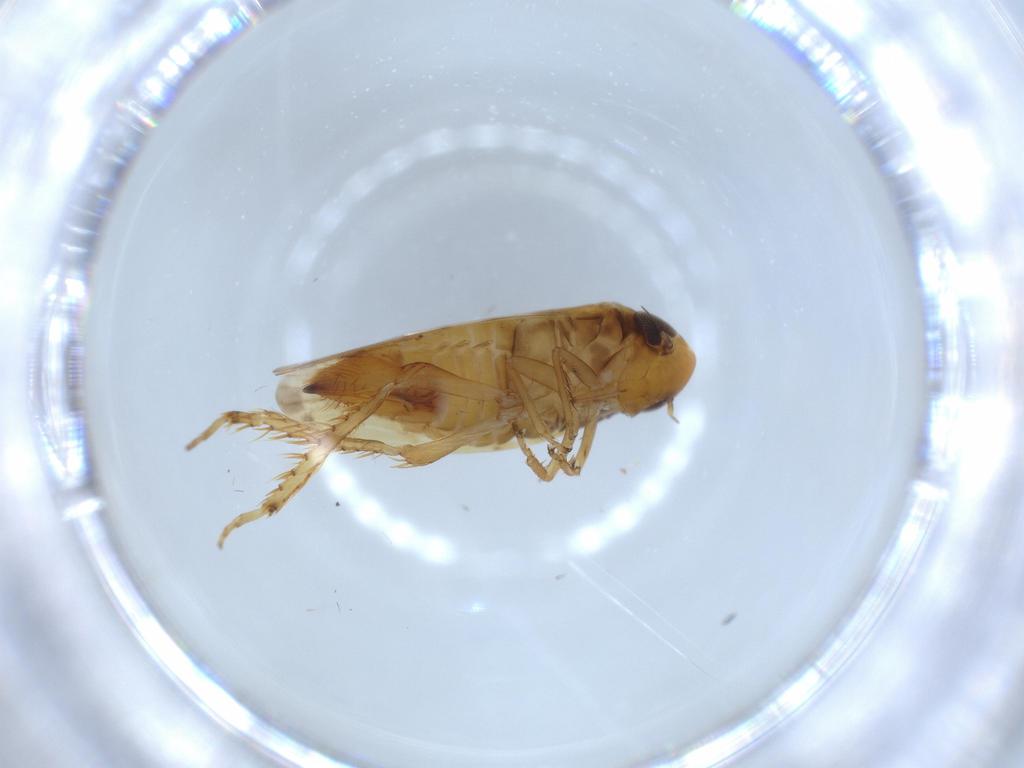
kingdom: Animalia
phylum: Arthropoda
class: Insecta
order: Hemiptera
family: Cicadellidae
